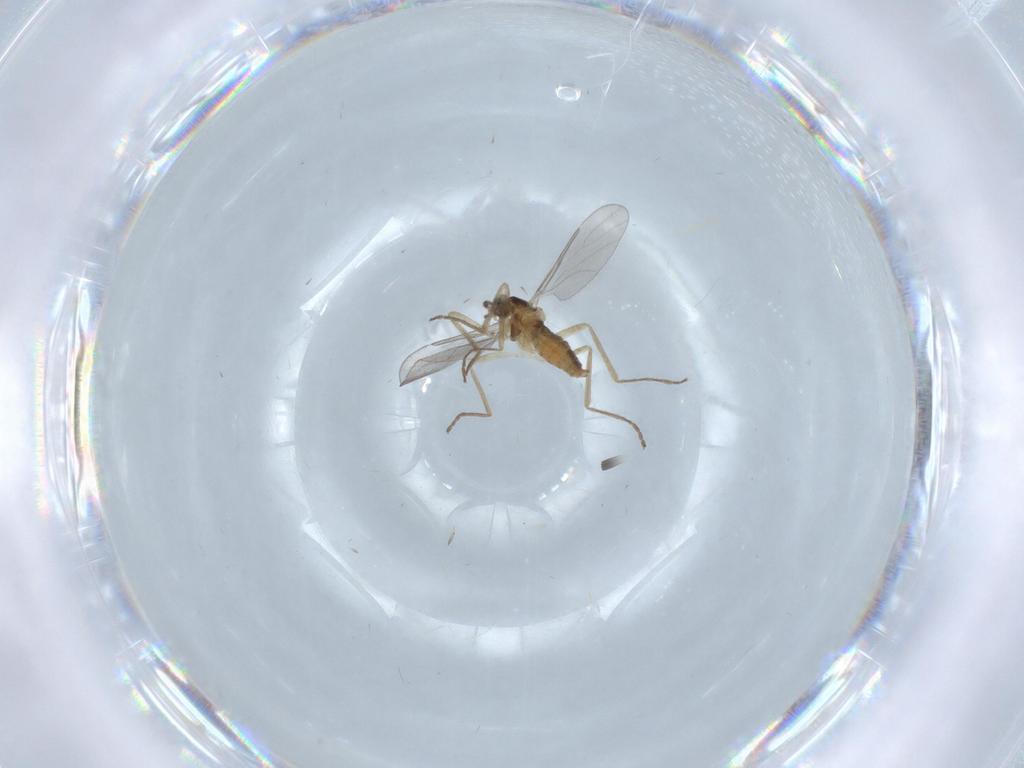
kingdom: Animalia
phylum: Arthropoda
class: Insecta
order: Diptera
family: Cecidomyiidae
